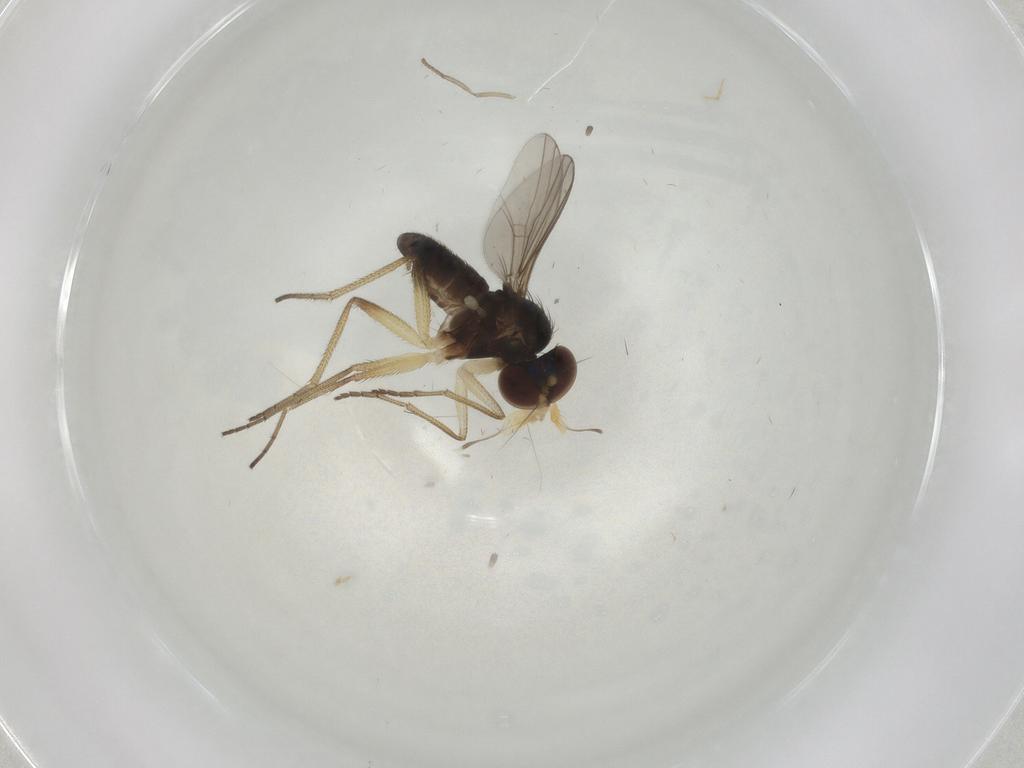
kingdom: Animalia
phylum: Arthropoda
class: Insecta
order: Diptera
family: Dolichopodidae
